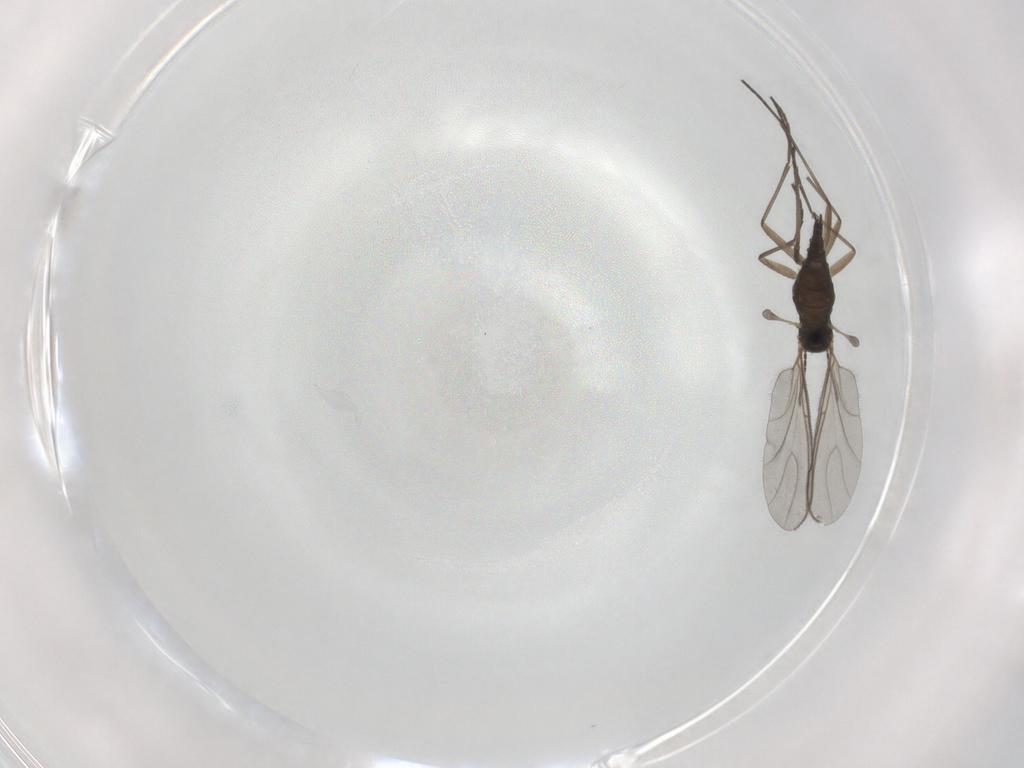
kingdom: Animalia
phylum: Arthropoda
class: Insecta
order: Diptera
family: Sciaridae
